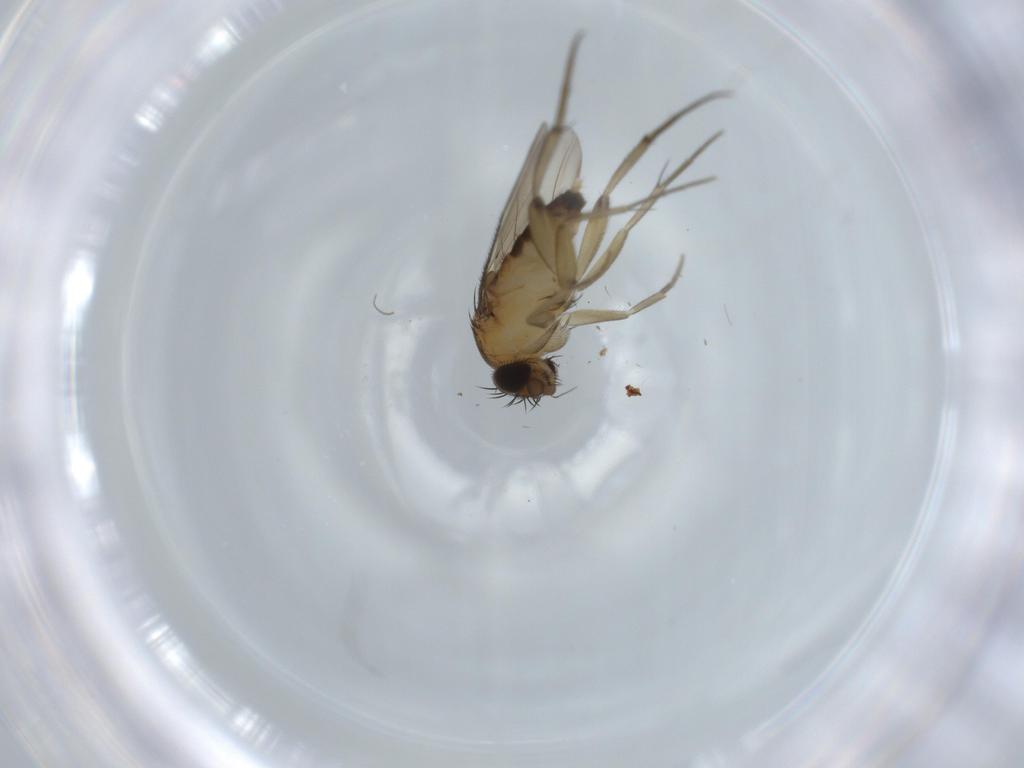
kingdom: Animalia
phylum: Arthropoda
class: Insecta
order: Diptera
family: Phoridae
